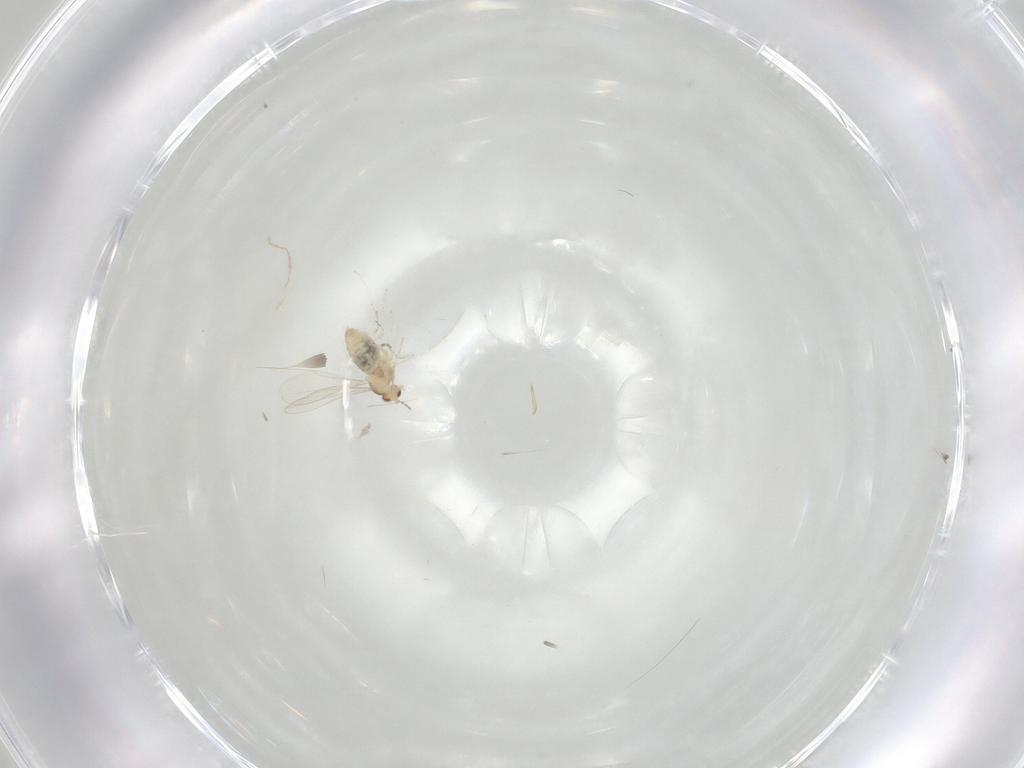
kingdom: Animalia
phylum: Arthropoda
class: Insecta
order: Diptera
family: Cecidomyiidae
